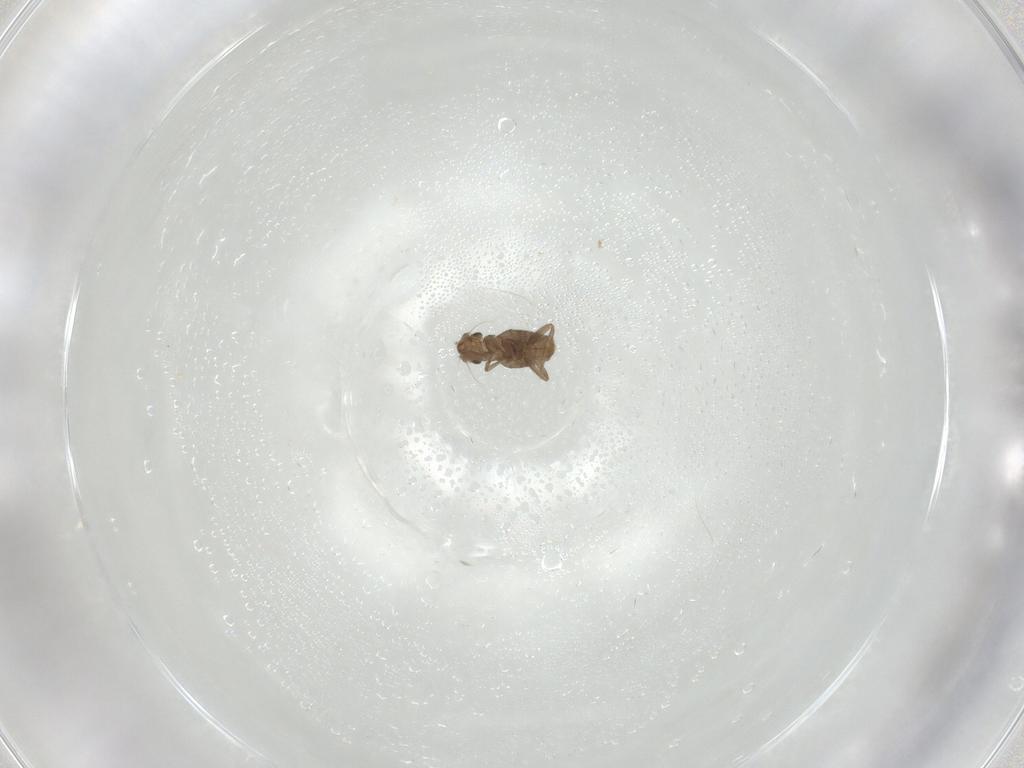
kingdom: Animalia
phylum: Arthropoda
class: Insecta
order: Diptera
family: Phoridae
